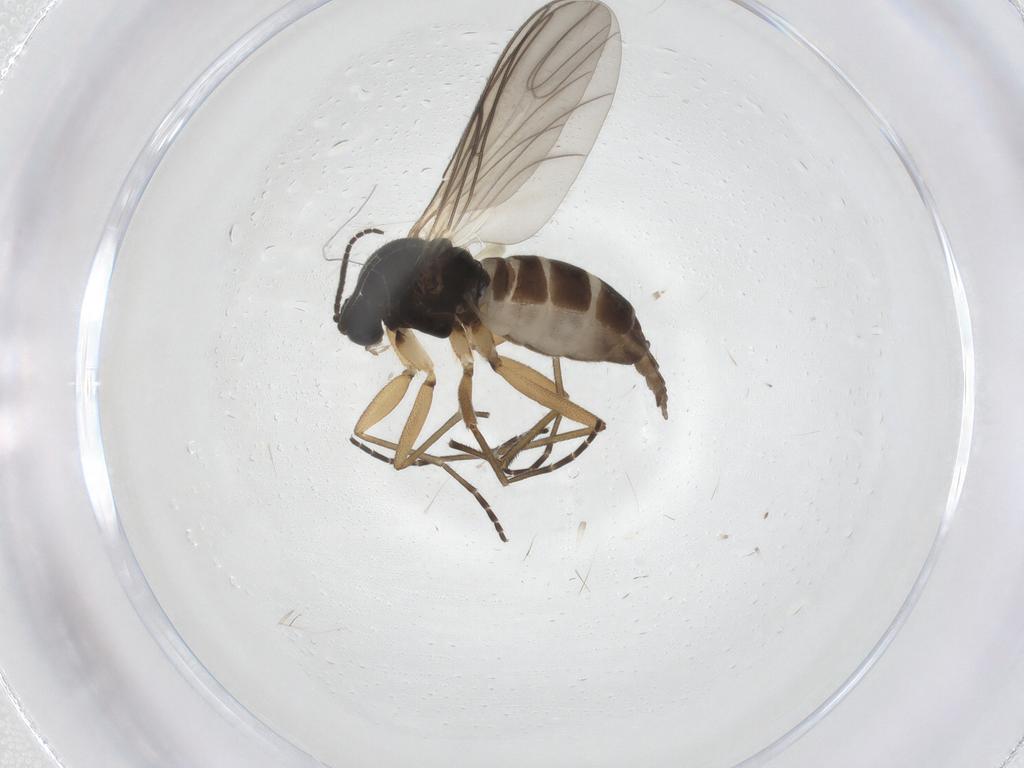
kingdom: Animalia
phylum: Arthropoda
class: Insecta
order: Diptera
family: Sciaridae
